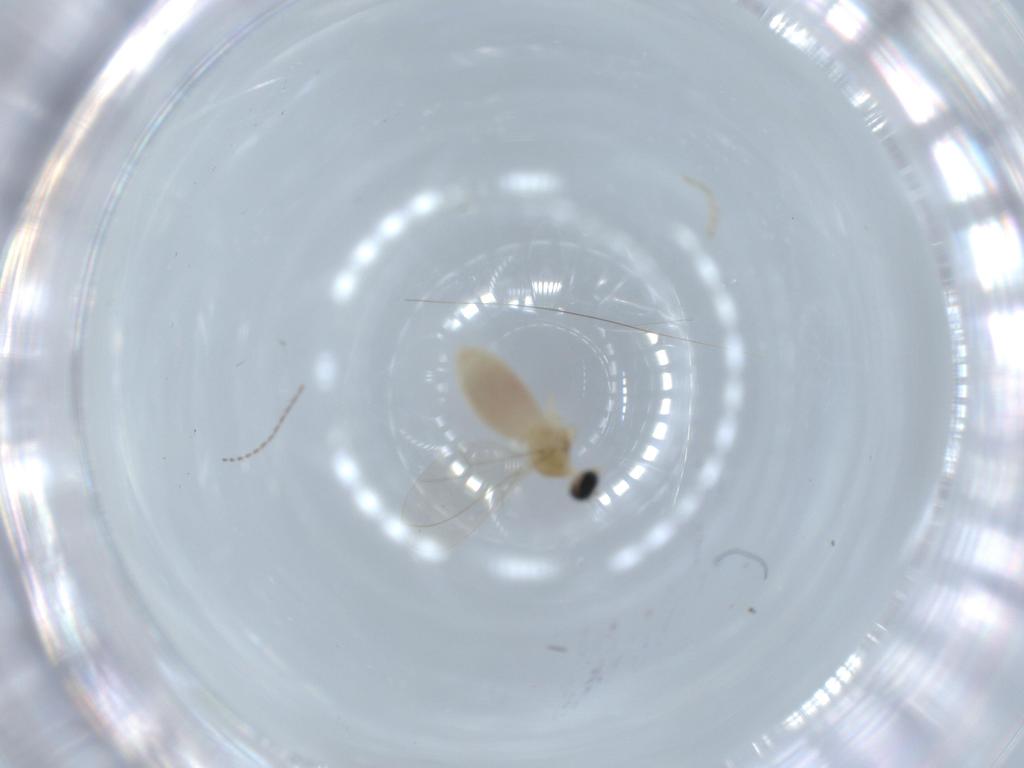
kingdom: Animalia
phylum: Arthropoda
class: Insecta
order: Diptera
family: Cecidomyiidae
